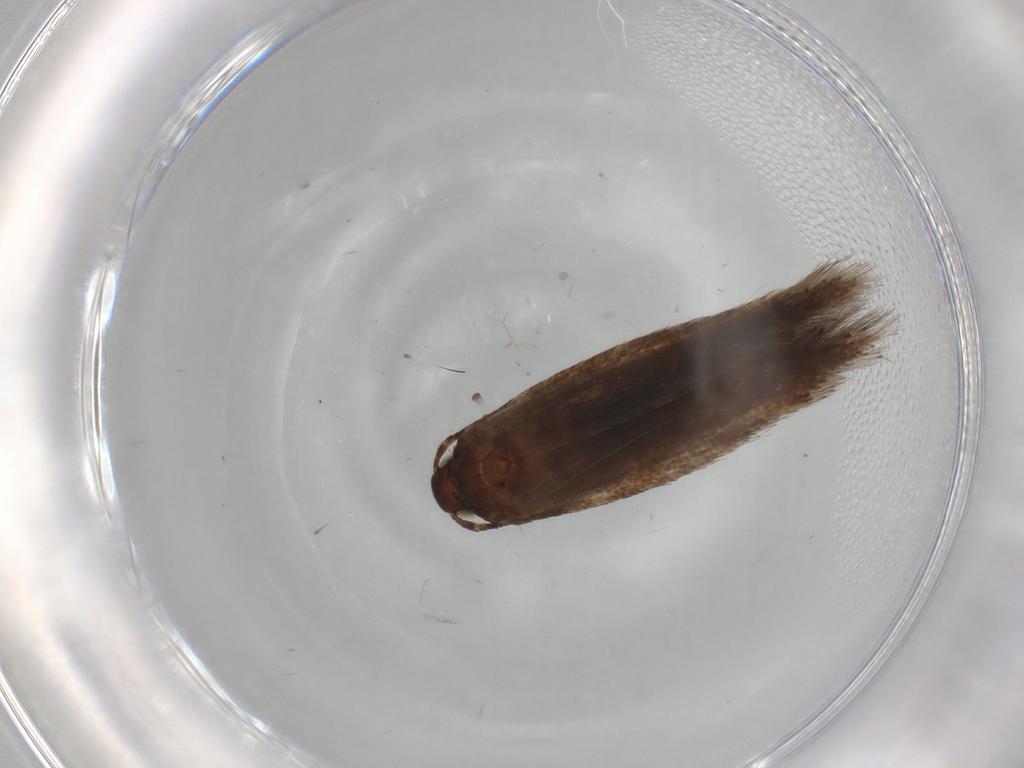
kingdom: Animalia
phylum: Arthropoda
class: Insecta
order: Lepidoptera
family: Gelechiidae
